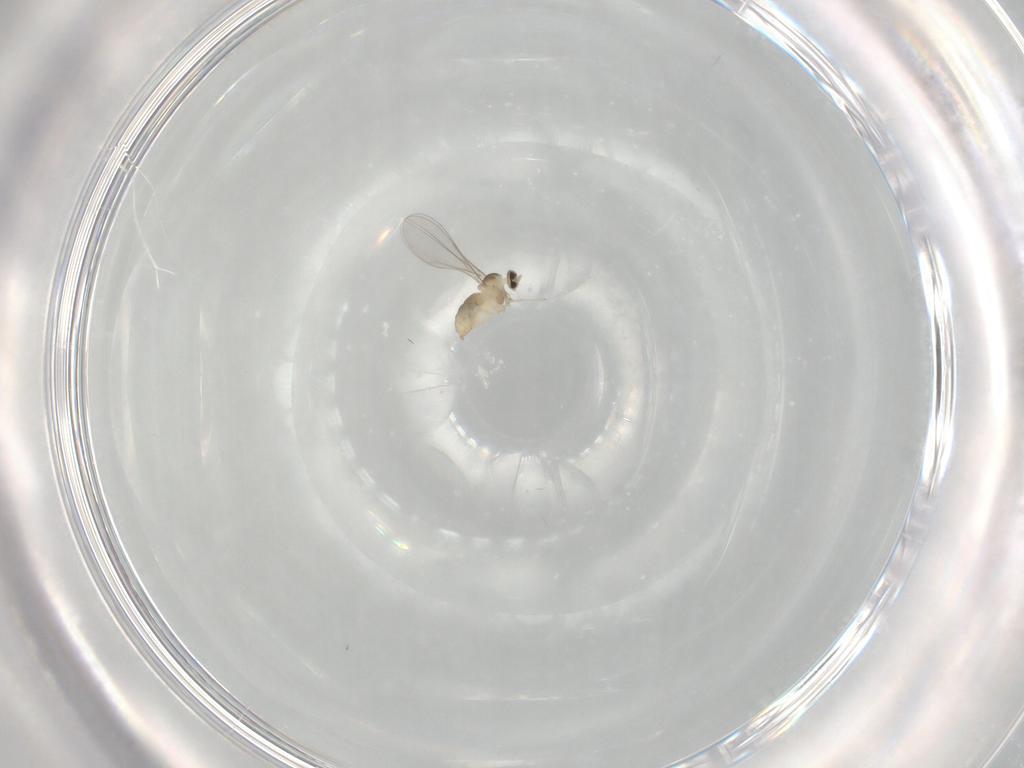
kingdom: Animalia
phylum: Arthropoda
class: Insecta
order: Diptera
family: Cecidomyiidae
